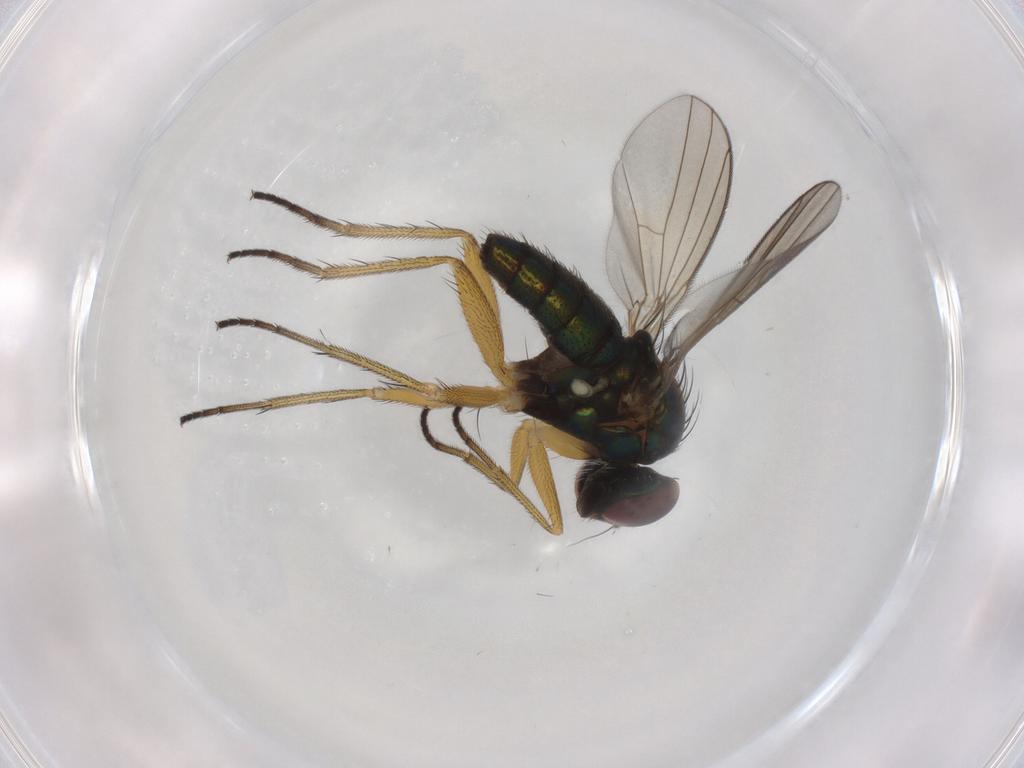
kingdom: Animalia
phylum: Arthropoda
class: Insecta
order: Diptera
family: Dolichopodidae
